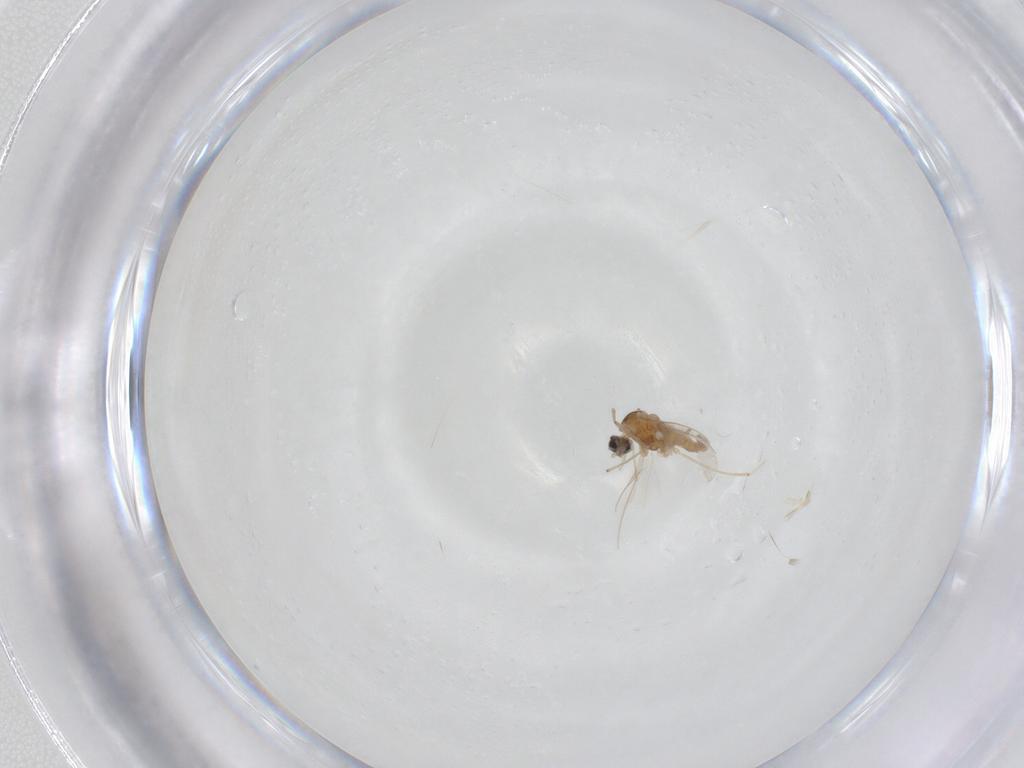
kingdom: Animalia
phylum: Arthropoda
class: Insecta
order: Diptera
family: Cecidomyiidae
